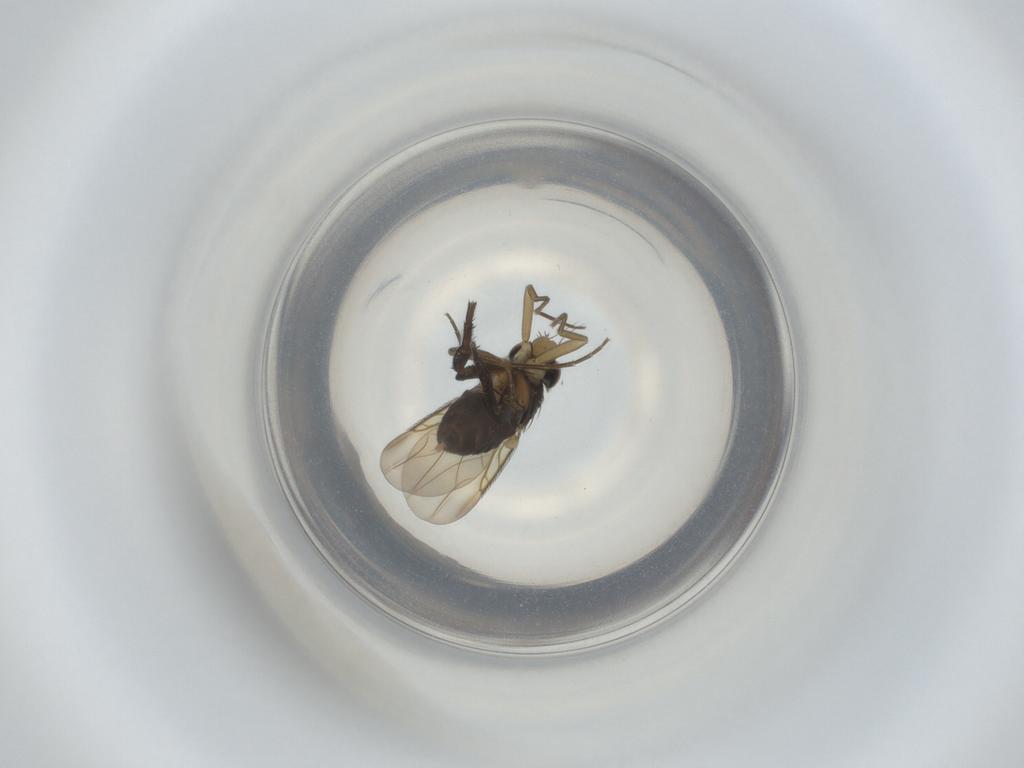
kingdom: Animalia
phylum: Arthropoda
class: Insecta
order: Diptera
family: Phoridae
